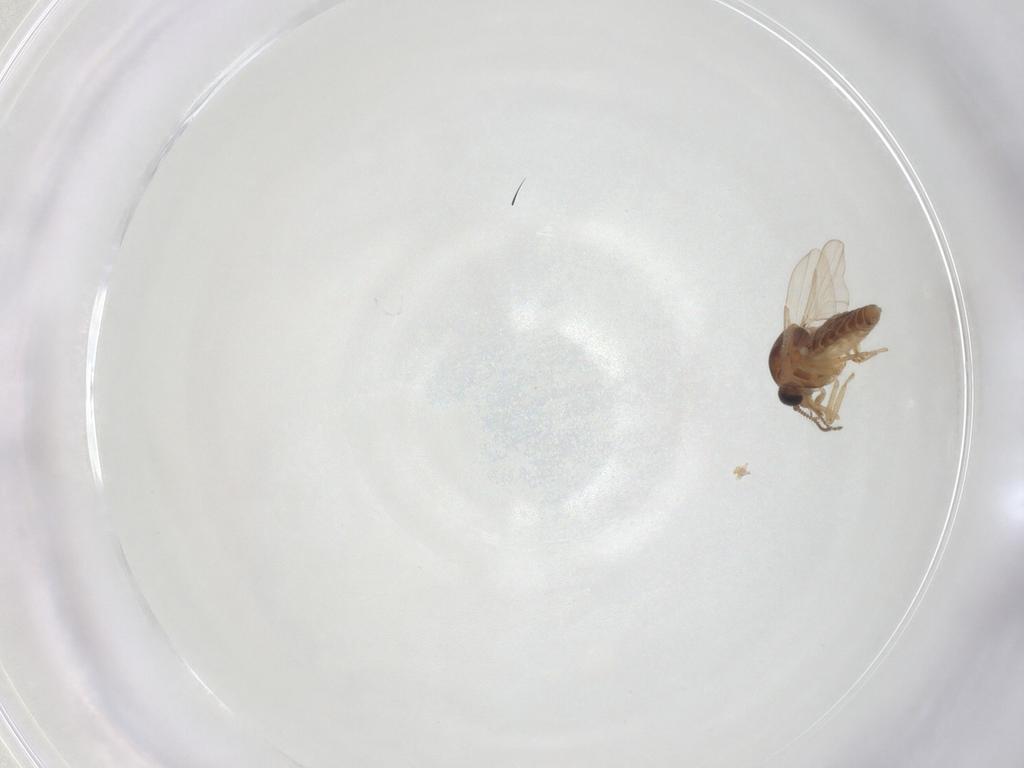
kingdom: Animalia
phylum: Arthropoda
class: Insecta
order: Diptera
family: Ceratopogonidae
